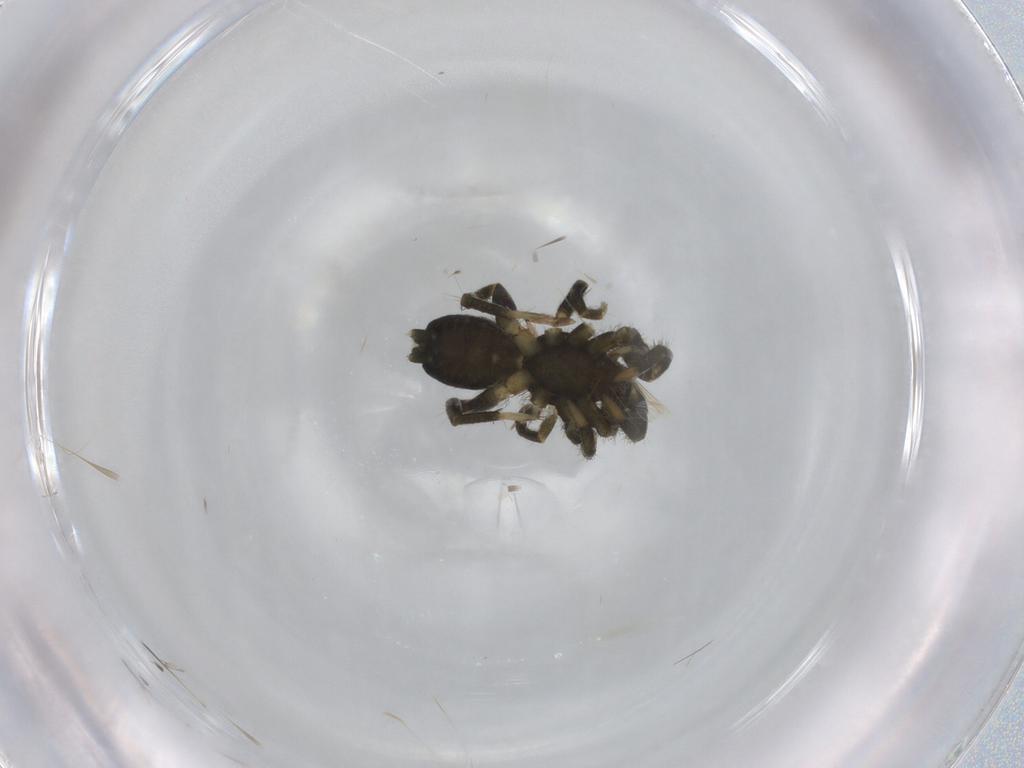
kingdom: Animalia
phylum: Arthropoda
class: Arachnida
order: Araneae
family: Gnaphosidae
